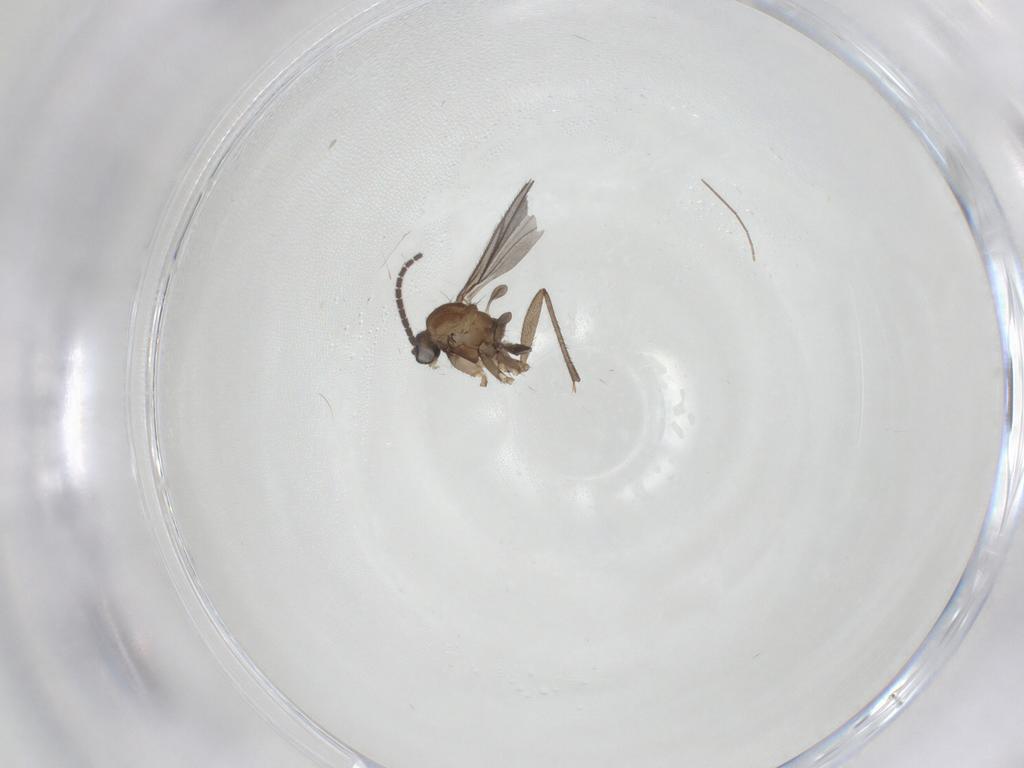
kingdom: Animalia
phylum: Arthropoda
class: Insecta
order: Diptera
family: Sciaridae
